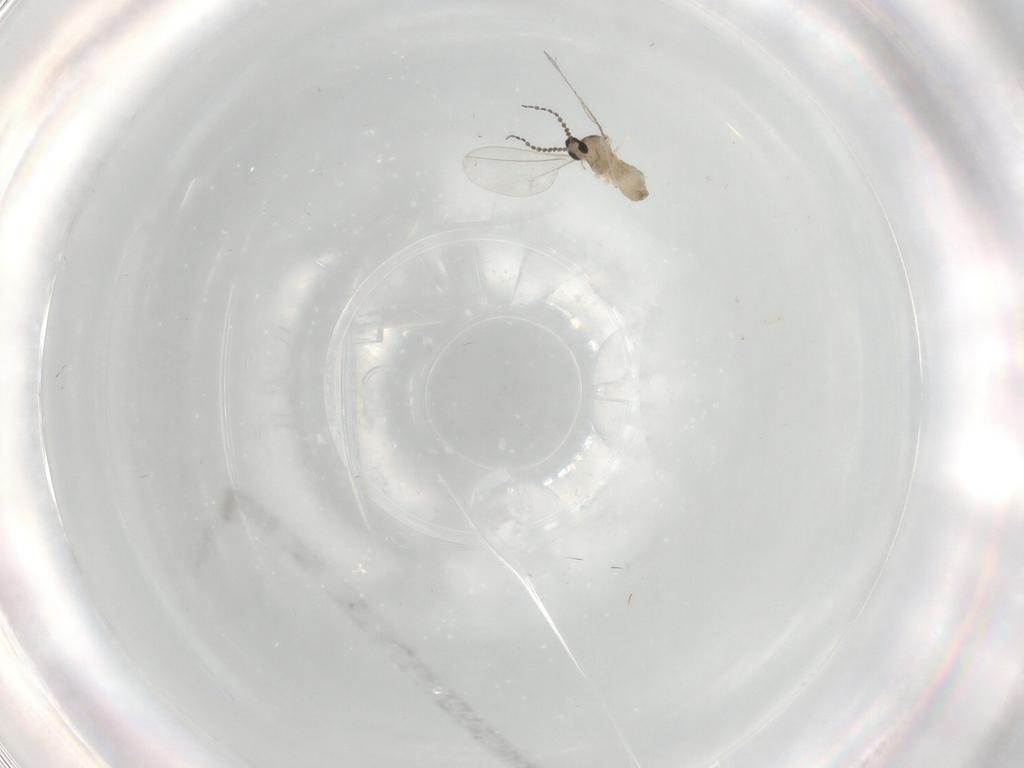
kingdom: Animalia
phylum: Arthropoda
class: Insecta
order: Diptera
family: Cecidomyiidae
